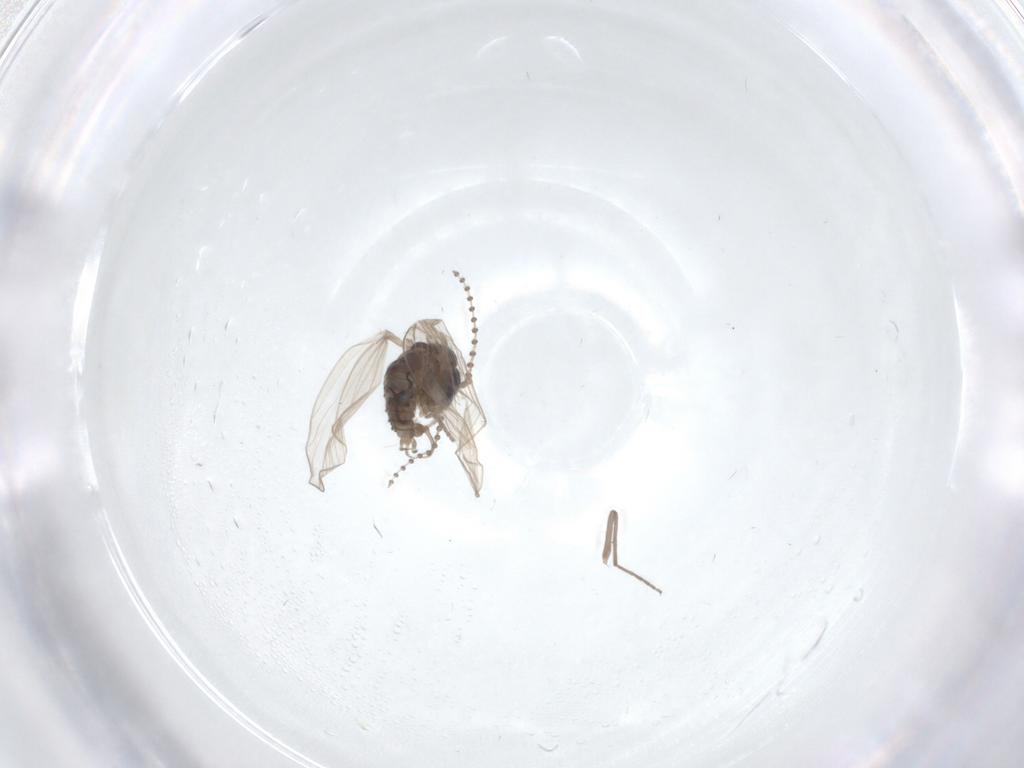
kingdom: Animalia
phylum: Arthropoda
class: Insecta
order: Diptera
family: Psychodidae
